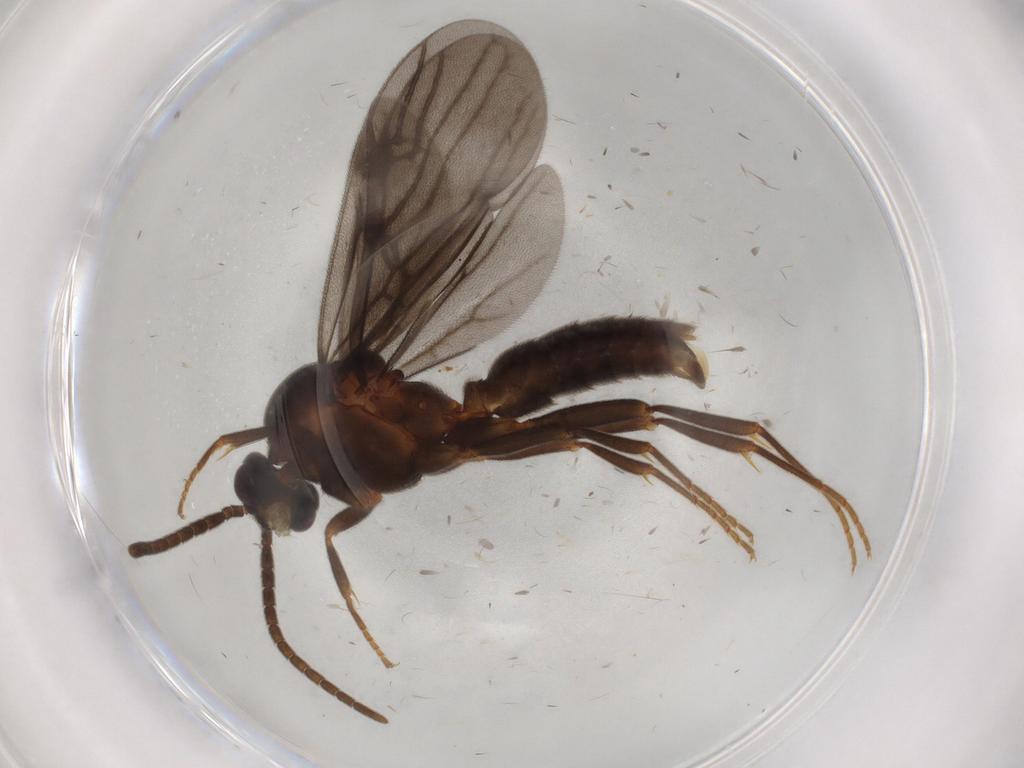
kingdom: Animalia
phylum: Arthropoda
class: Insecta
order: Hymenoptera
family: Formicidae
